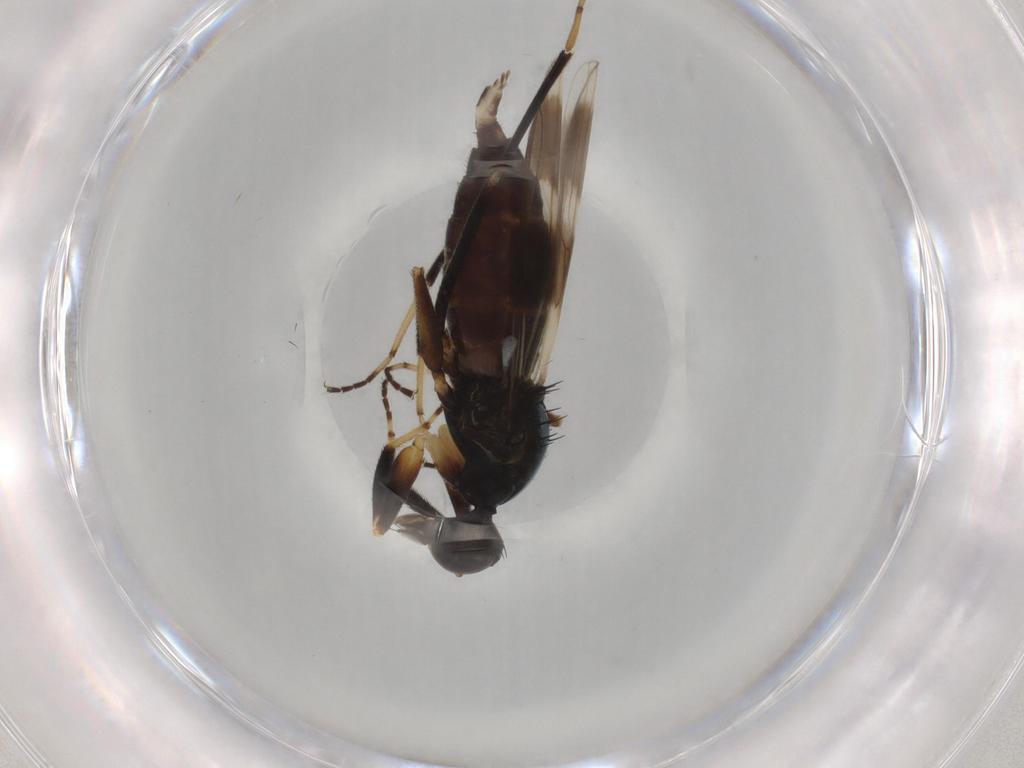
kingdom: Animalia
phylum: Arthropoda
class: Insecta
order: Diptera
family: Hybotidae
